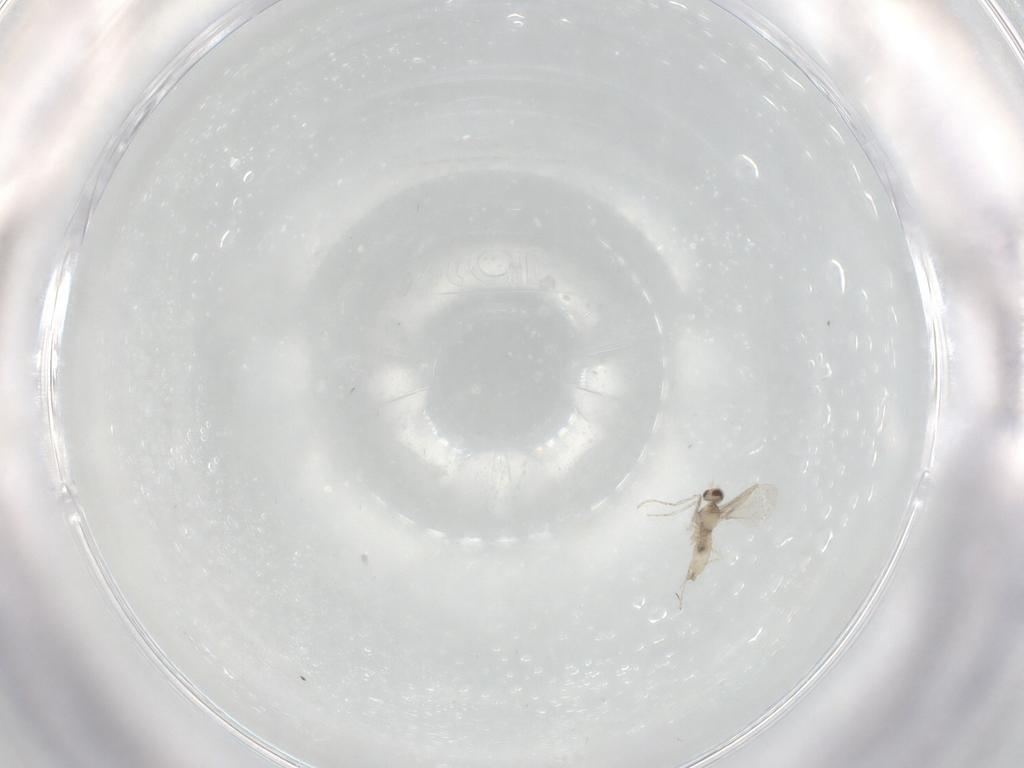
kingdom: Animalia
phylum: Arthropoda
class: Insecta
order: Diptera
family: Cecidomyiidae
